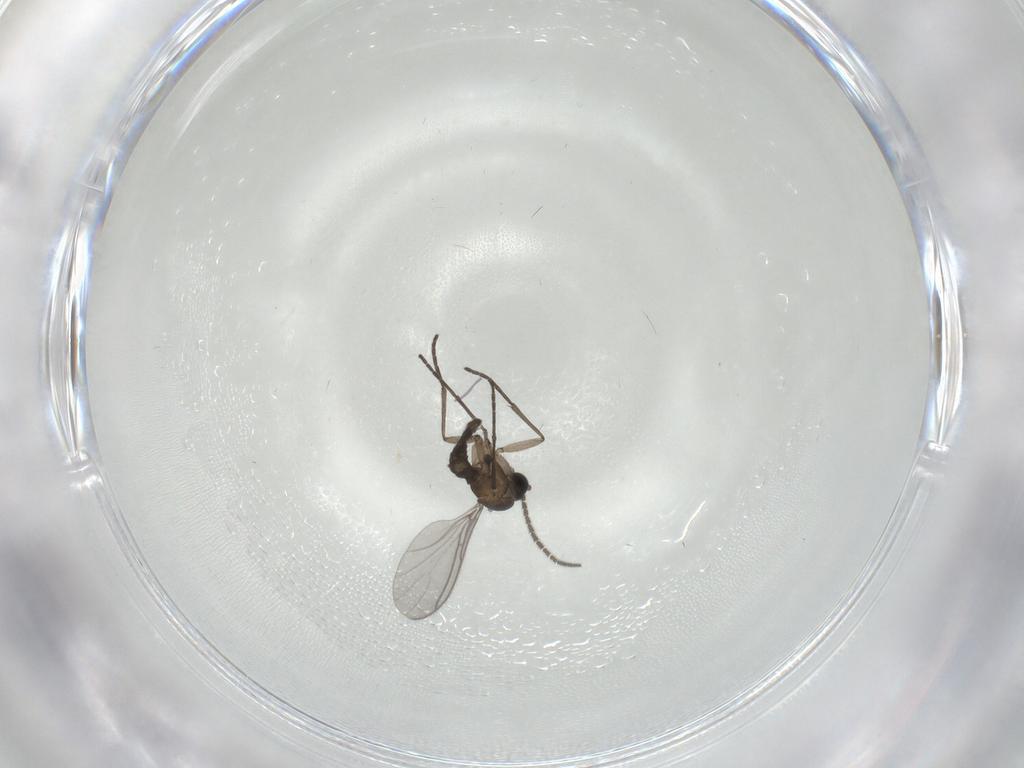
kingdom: Animalia
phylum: Arthropoda
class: Insecta
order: Diptera
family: Sciaridae
